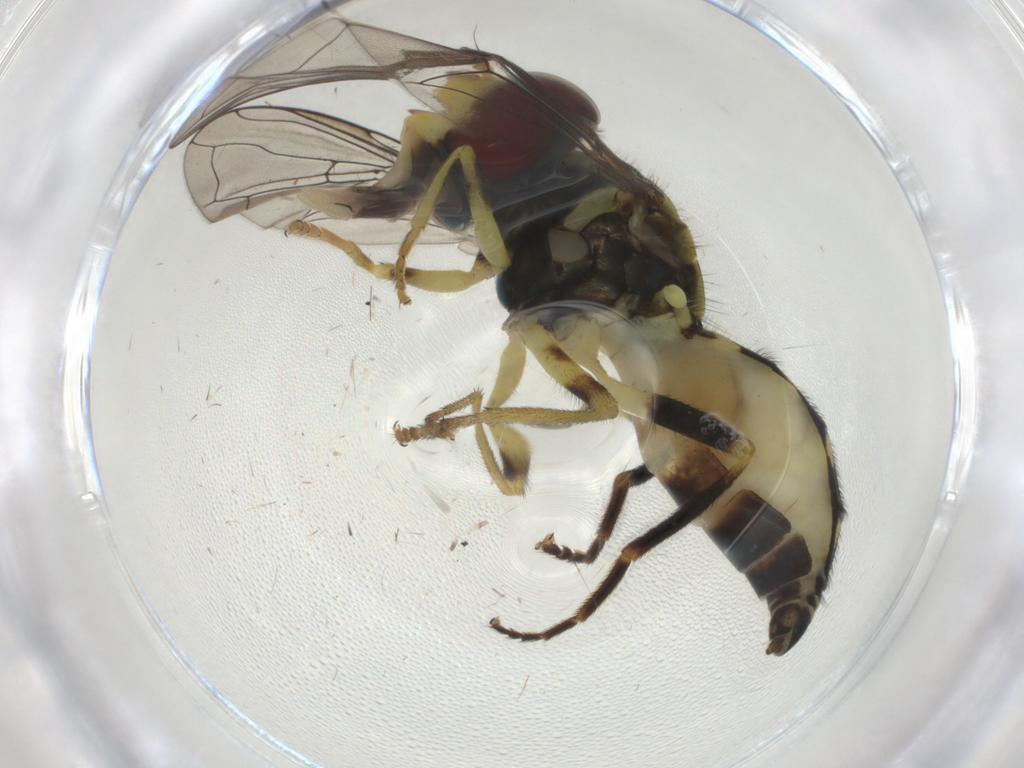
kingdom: Animalia
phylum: Arthropoda
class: Insecta
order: Diptera
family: Syrphidae
